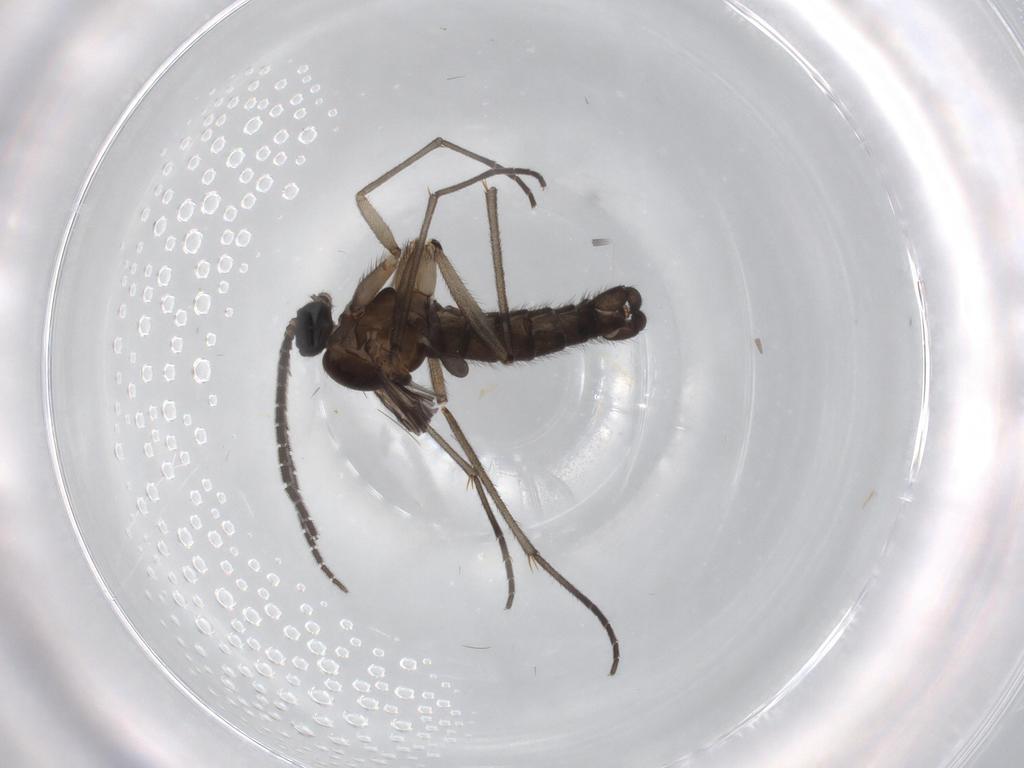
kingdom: Animalia
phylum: Arthropoda
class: Insecta
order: Diptera
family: Sciaridae
